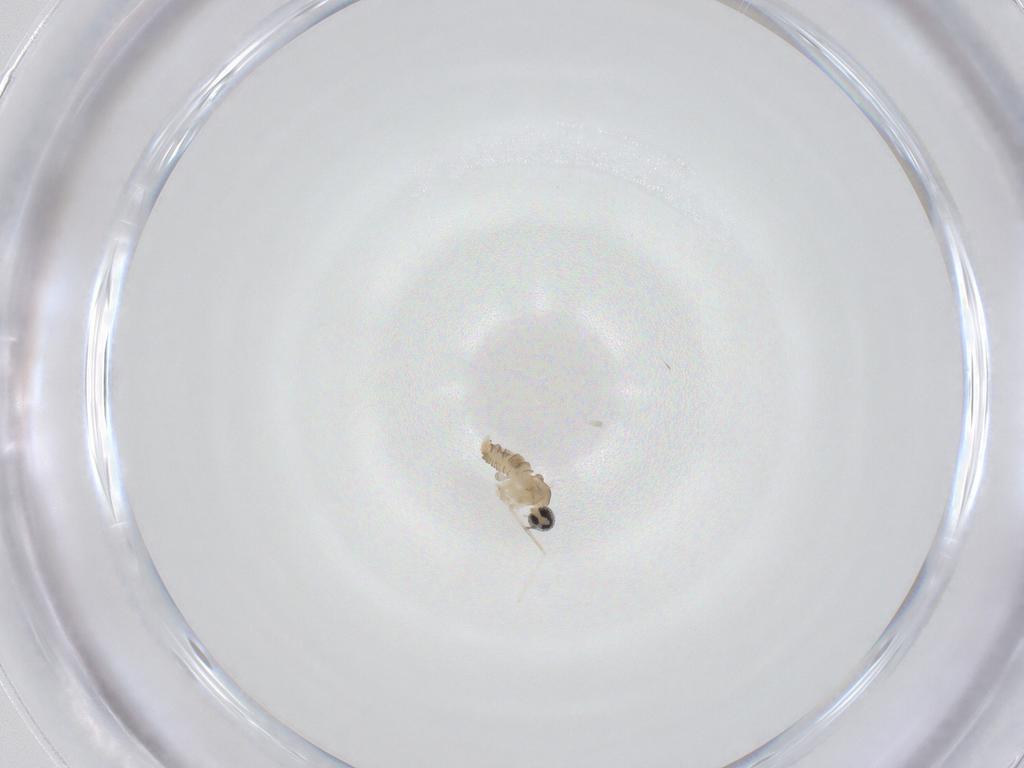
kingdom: Animalia
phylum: Arthropoda
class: Insecta
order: Diptera
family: Cecidomyiidae
